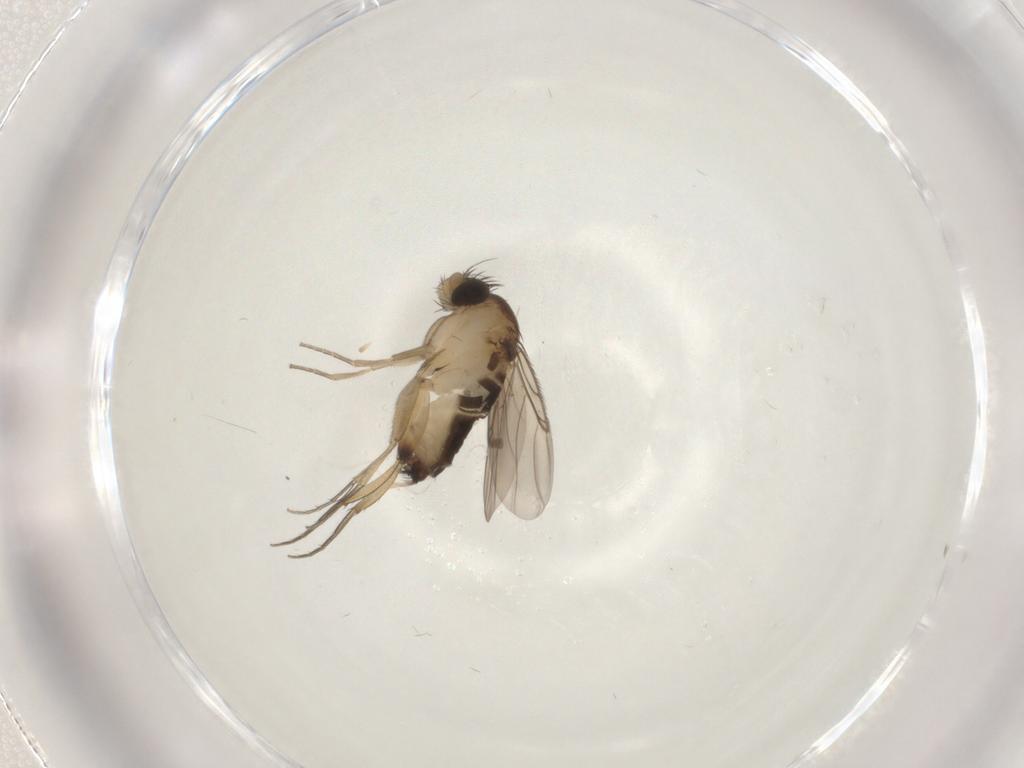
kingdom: Animalia
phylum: Arthropoda
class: Insecta
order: Diptera
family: Phoridae
